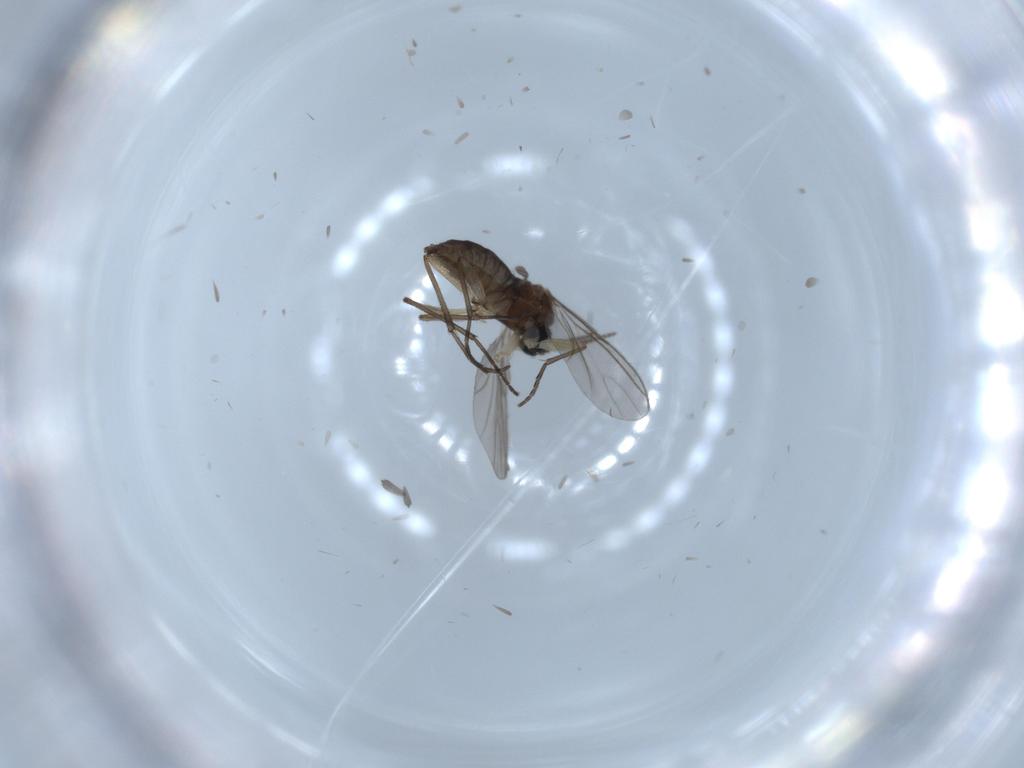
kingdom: Animalia
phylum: Arthropoda
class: Insecta
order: Diptera
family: Sciaridae
